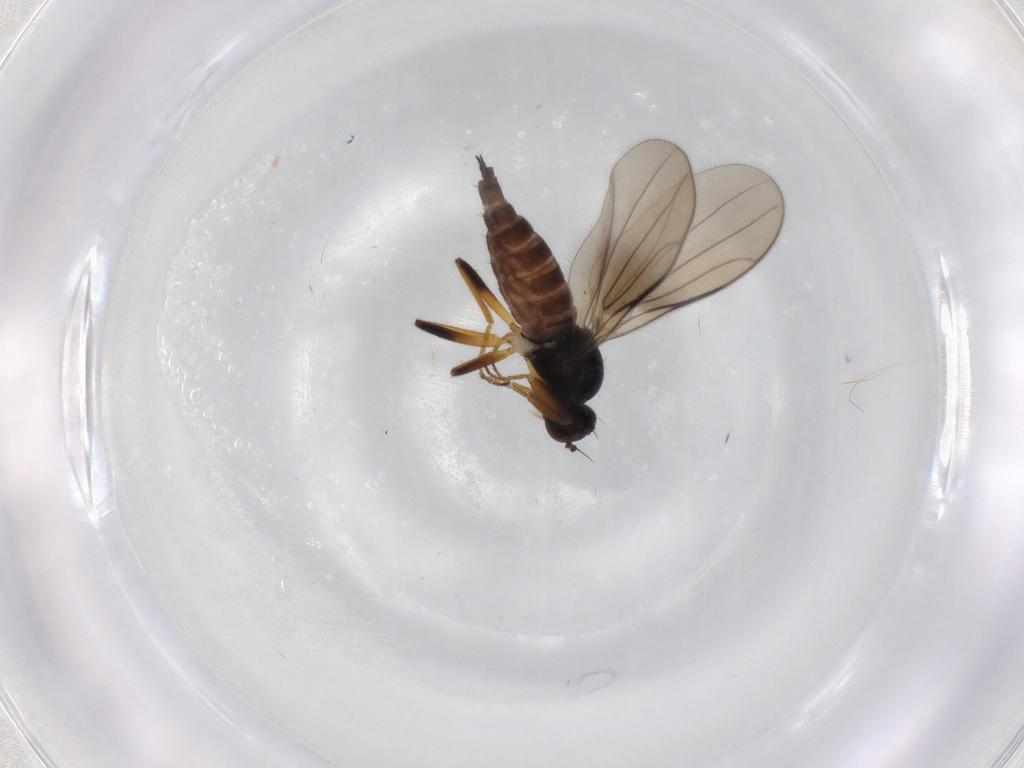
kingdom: Animalia
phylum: Arthropoda
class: Insecta
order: Diptera
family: Hybotidae
